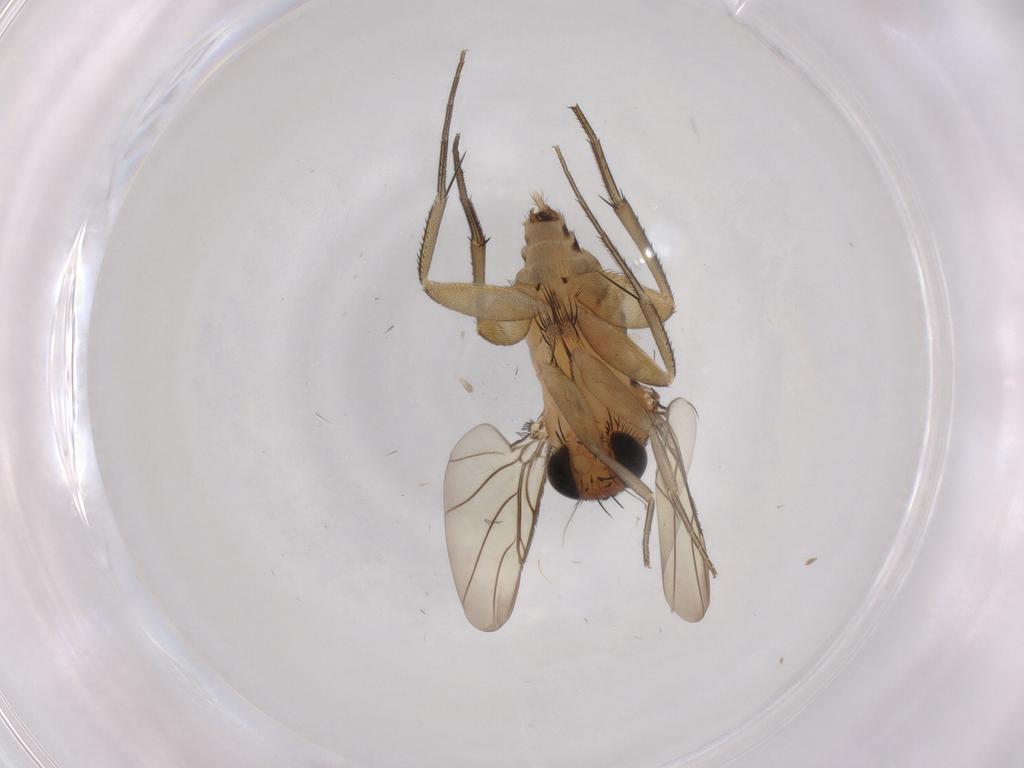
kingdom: Animalia
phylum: Arthropoda
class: Insecta
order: Diptera
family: Phoridae
